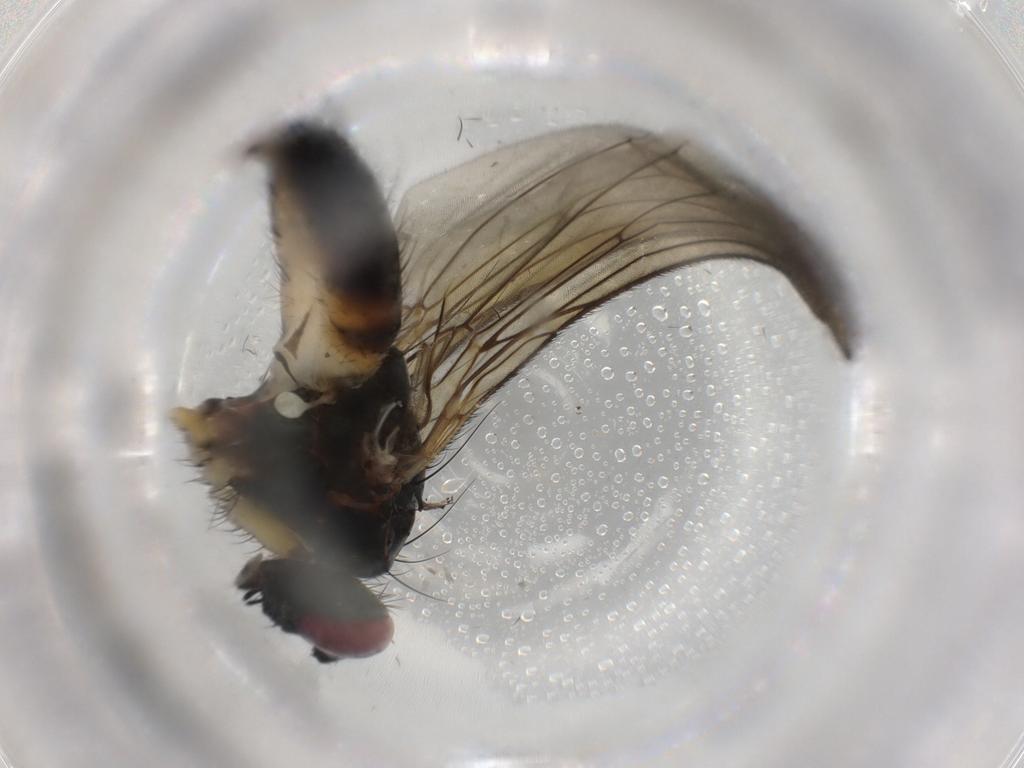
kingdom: Animalia
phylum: Arthropoda
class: Insecta
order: Diptera
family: Muscidae
